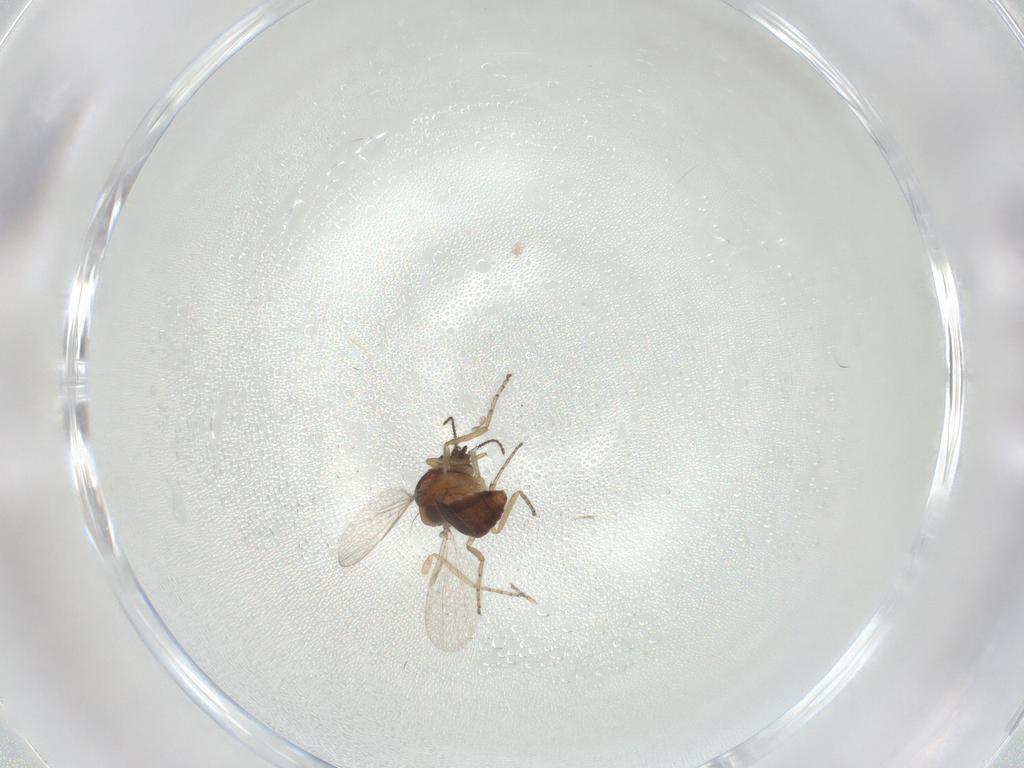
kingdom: Animalia
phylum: Arthropoda
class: Insecta
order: Diptera
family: Ceratopogonidae
